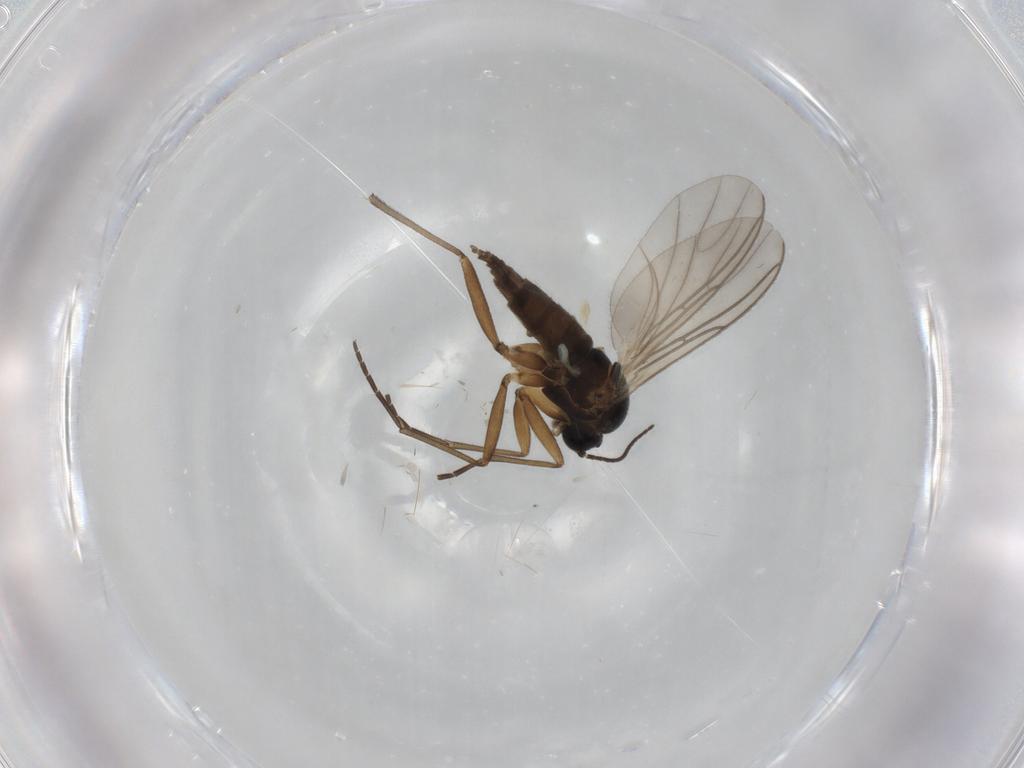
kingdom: Animalia
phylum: Arthropoda
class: Insecta
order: Diptera
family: Sciaridae
